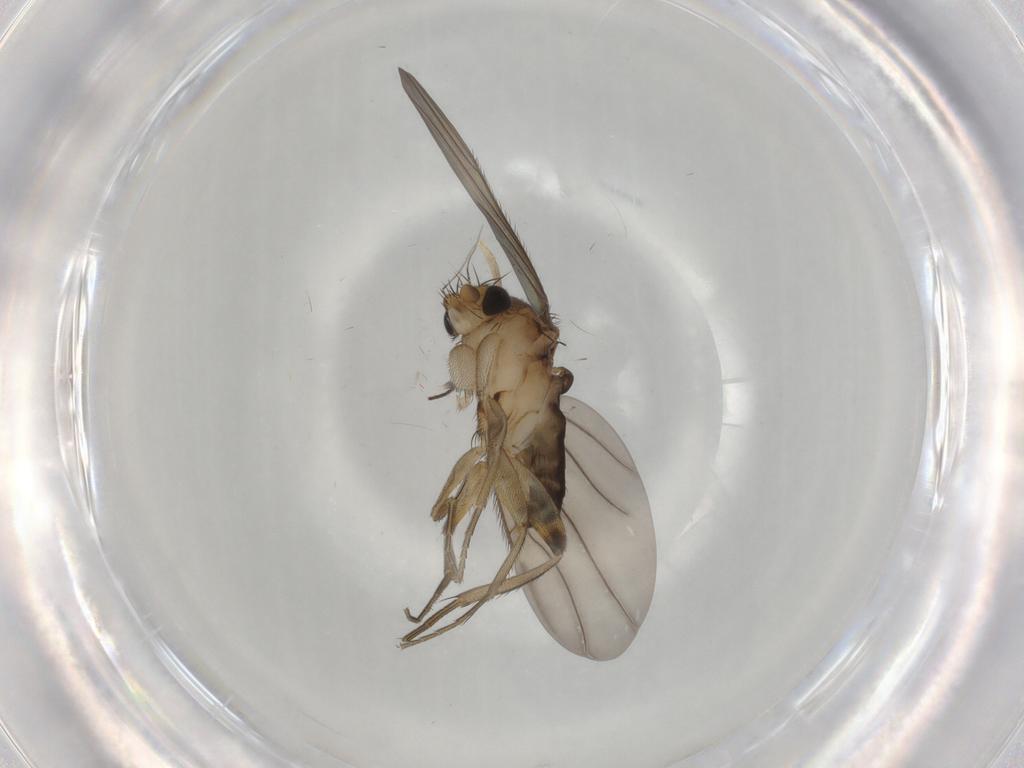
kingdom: Animalia
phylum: Arthropoda
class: Insecta
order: Diptera
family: Phoridae
